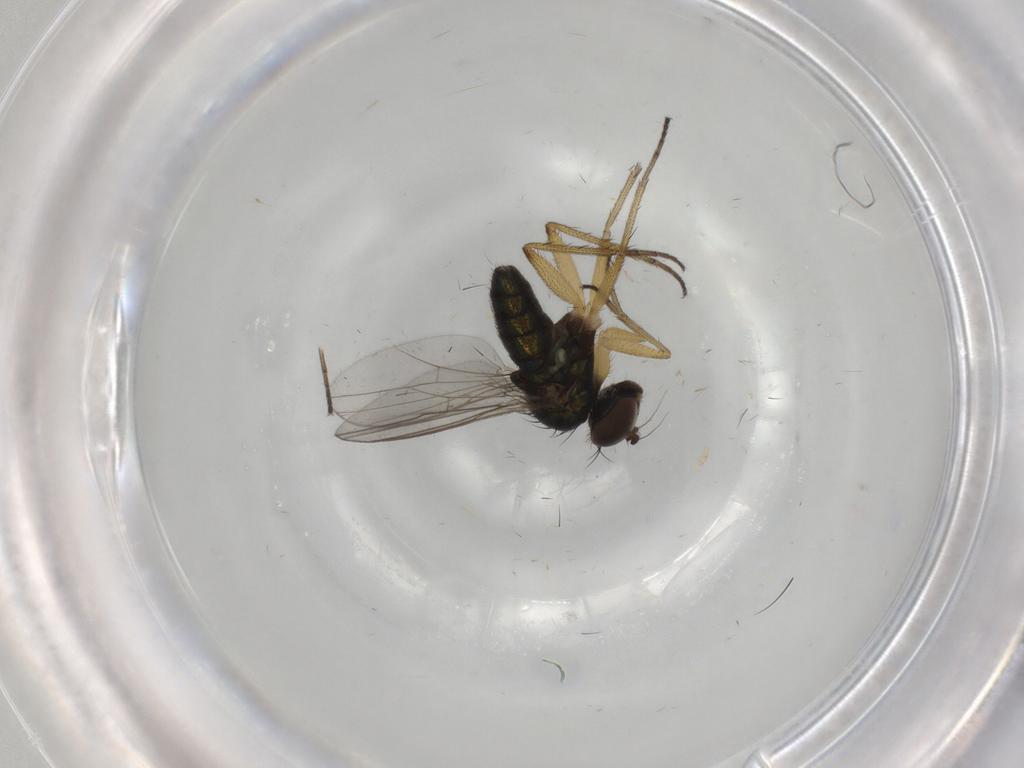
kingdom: Animalia
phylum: Arthropoda
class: Insecta
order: Diptera
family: Dolichopodidae
